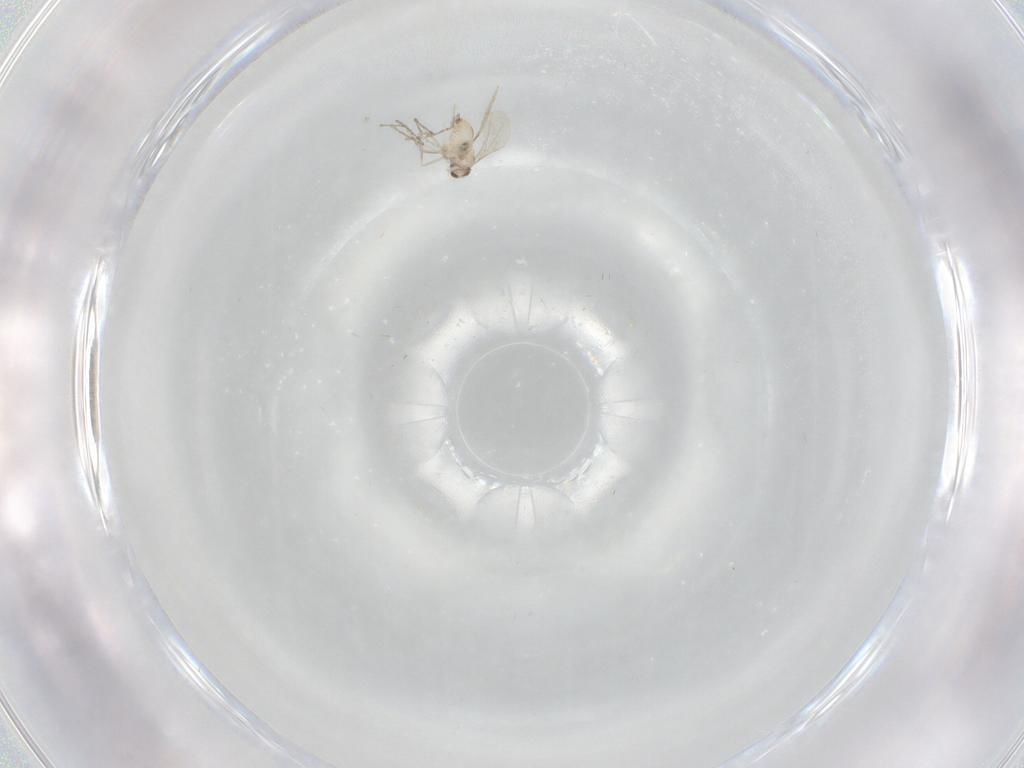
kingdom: Animalia
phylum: Arthropoda
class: Insecta
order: Diptera
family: Cecidomyiidae
